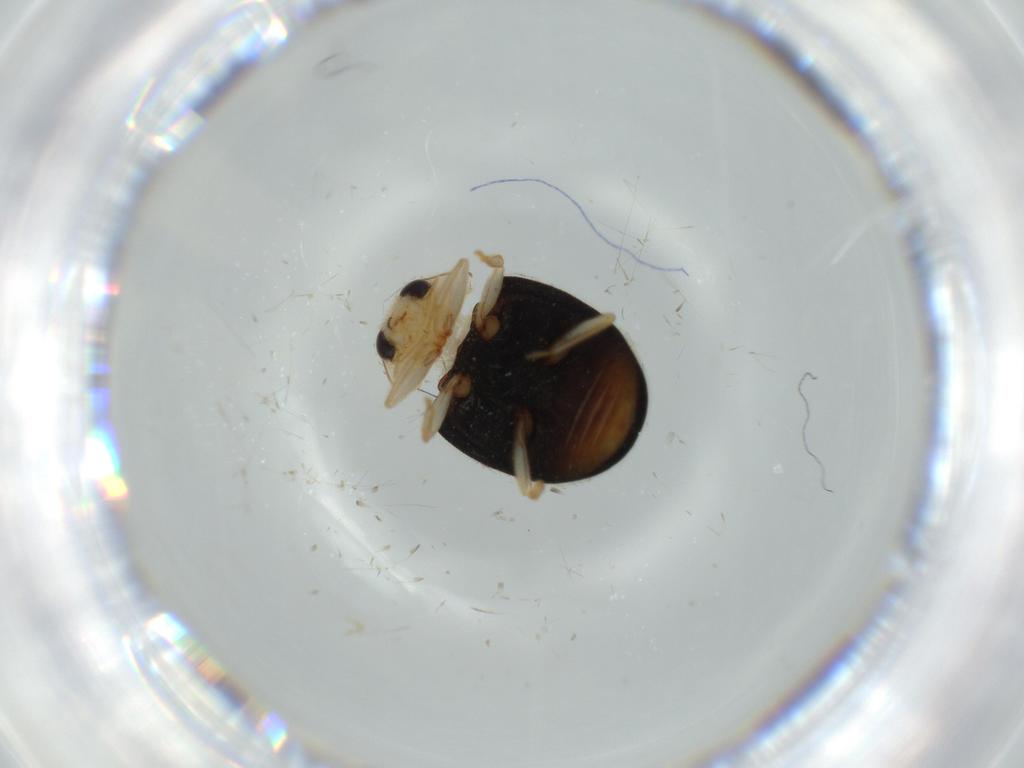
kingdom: Animalia
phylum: Arthropoda
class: Insecta
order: Coleoptera
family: Coccinellidae
